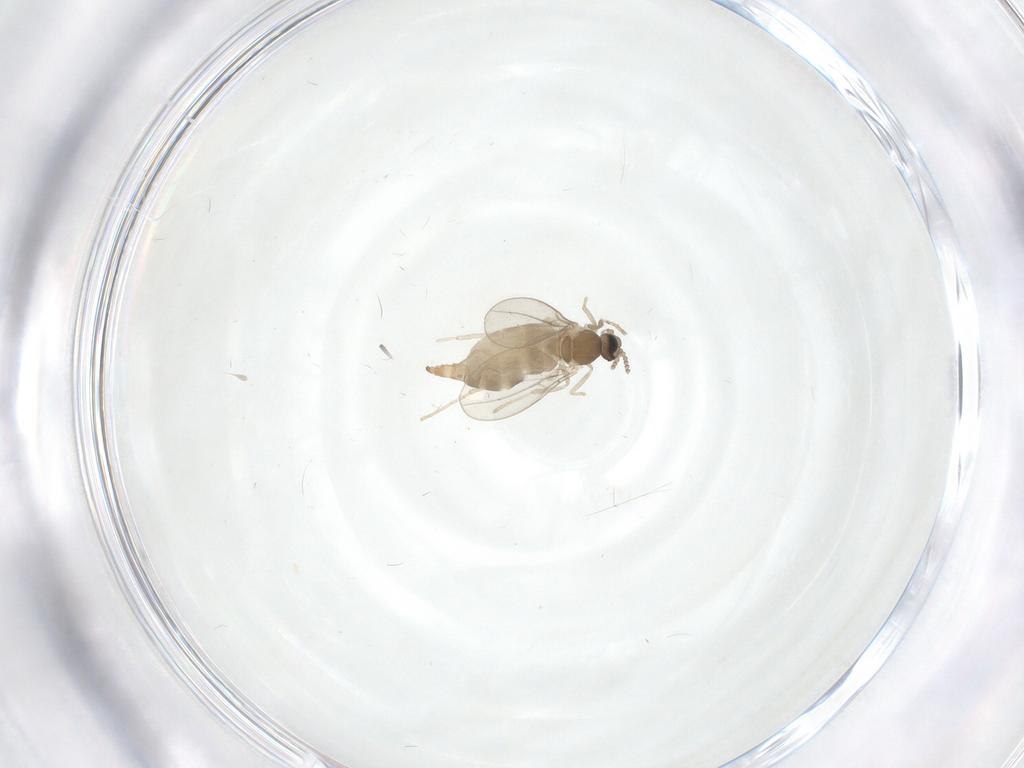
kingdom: Animalia
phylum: Arthropoda
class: Insecta
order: Diptera
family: Cecidomyiidae
